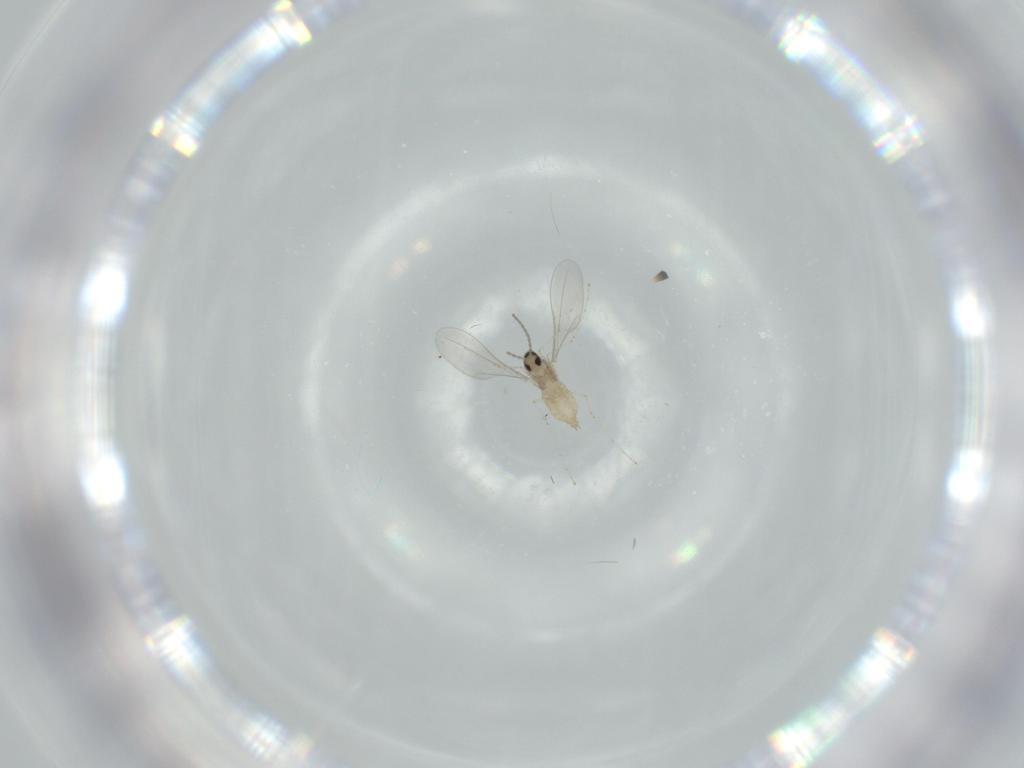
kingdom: Animalia
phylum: Arthropoda
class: Insecta
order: Diptera
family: Cecidomyiidae
